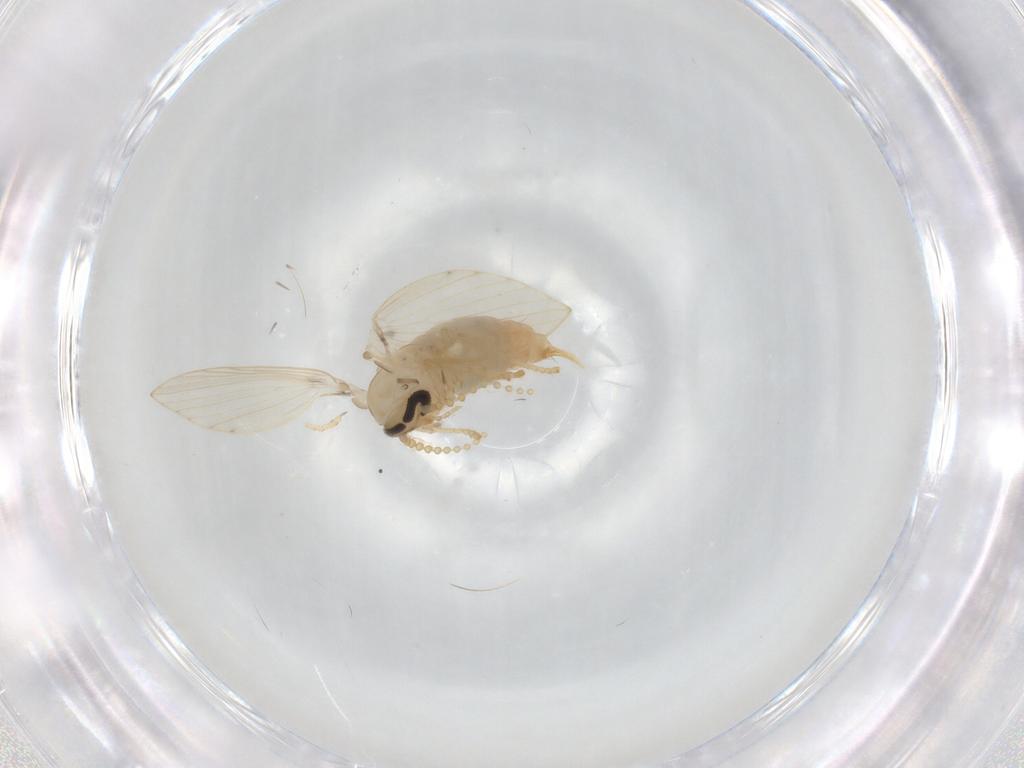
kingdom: Animalia
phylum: Arthropoda
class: Insecta
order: Diptera
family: Psychodidae
